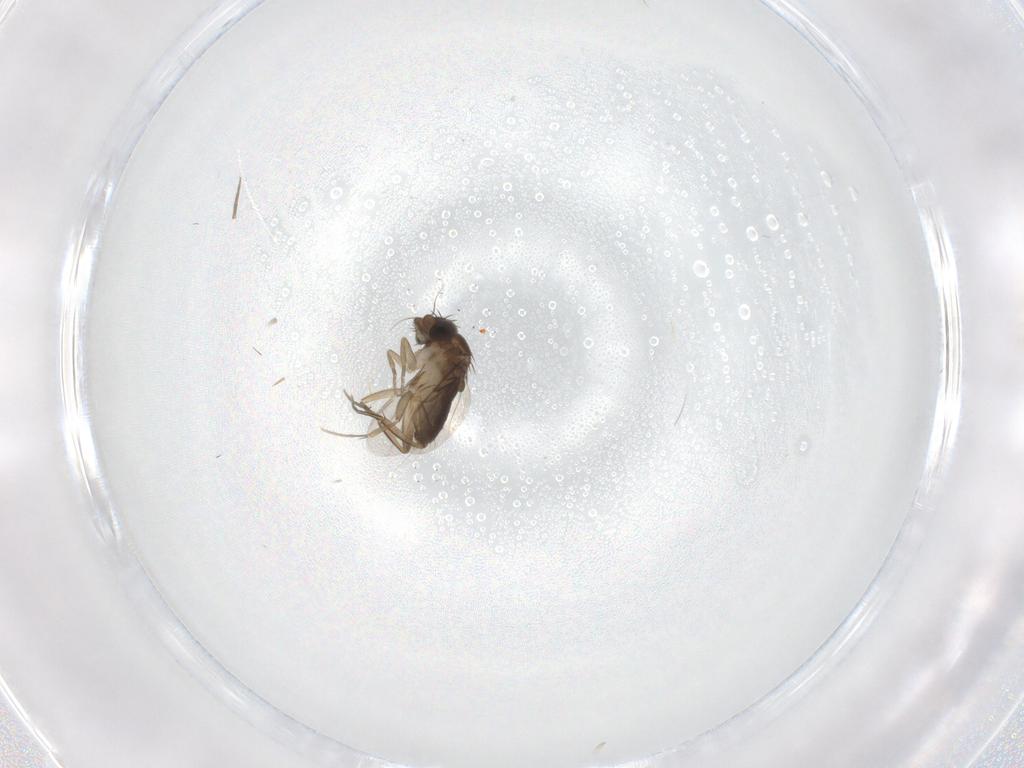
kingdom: Animalia
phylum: Arthropoda
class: Insecta
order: Diptera
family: Phoridae
